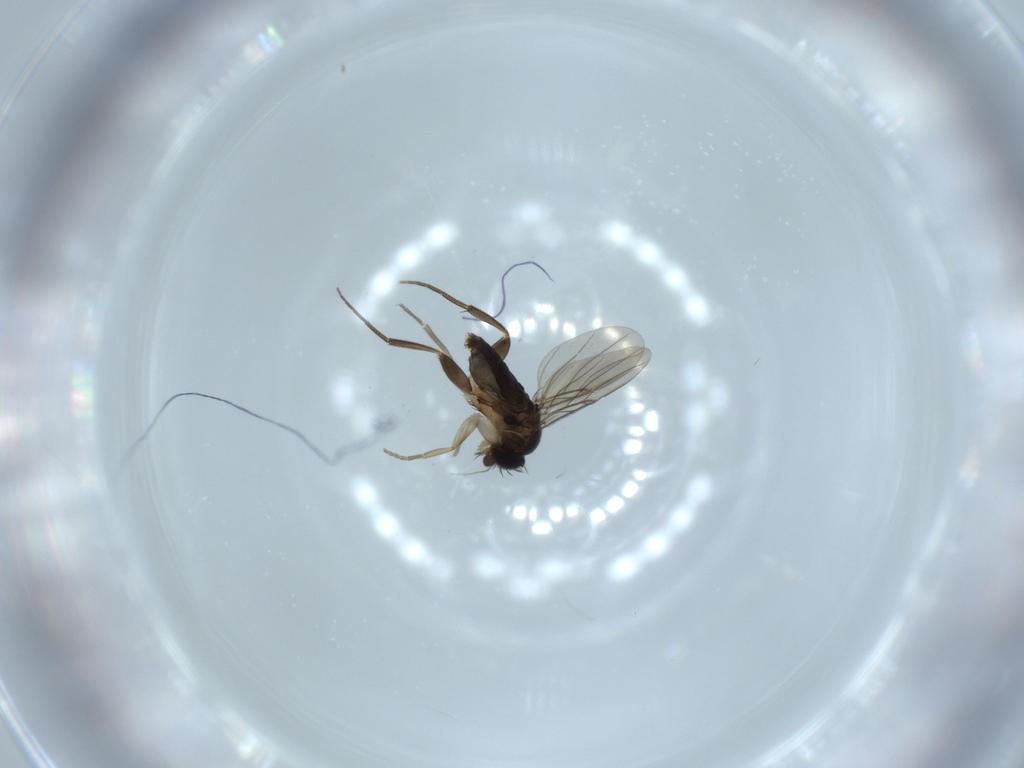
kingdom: Animalia
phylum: Arthropoda
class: Insecta
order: Diptera
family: Phoridae
